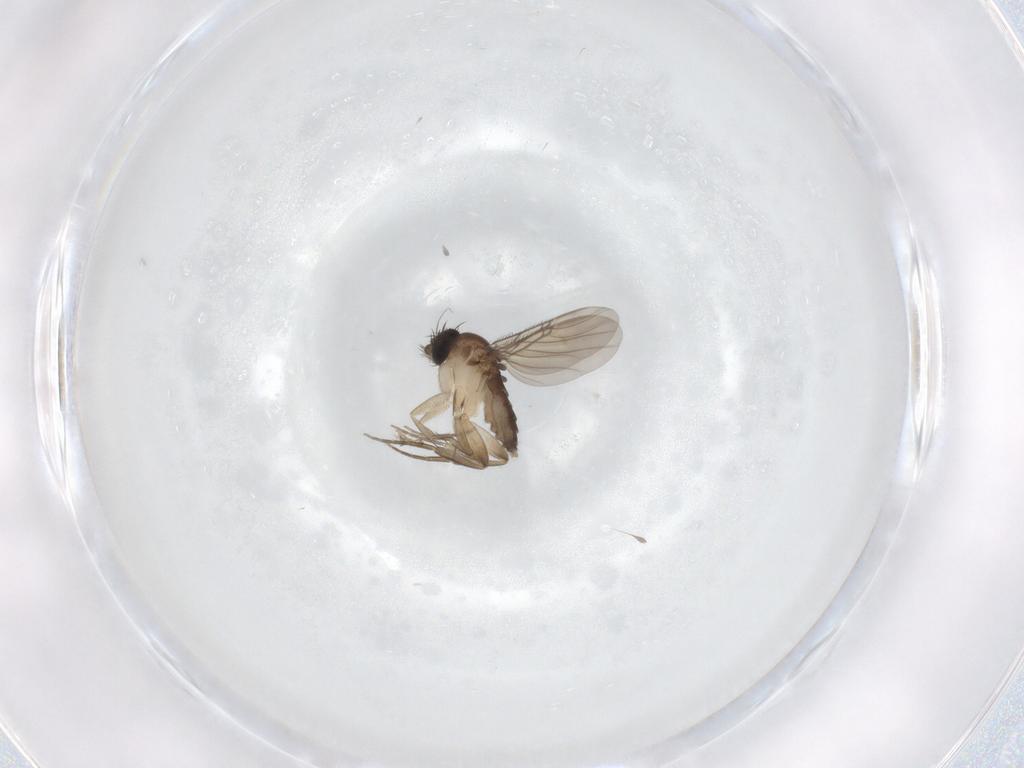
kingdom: Animalia
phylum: Arthropoda
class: Insecta
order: Diptera
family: Phoridae
